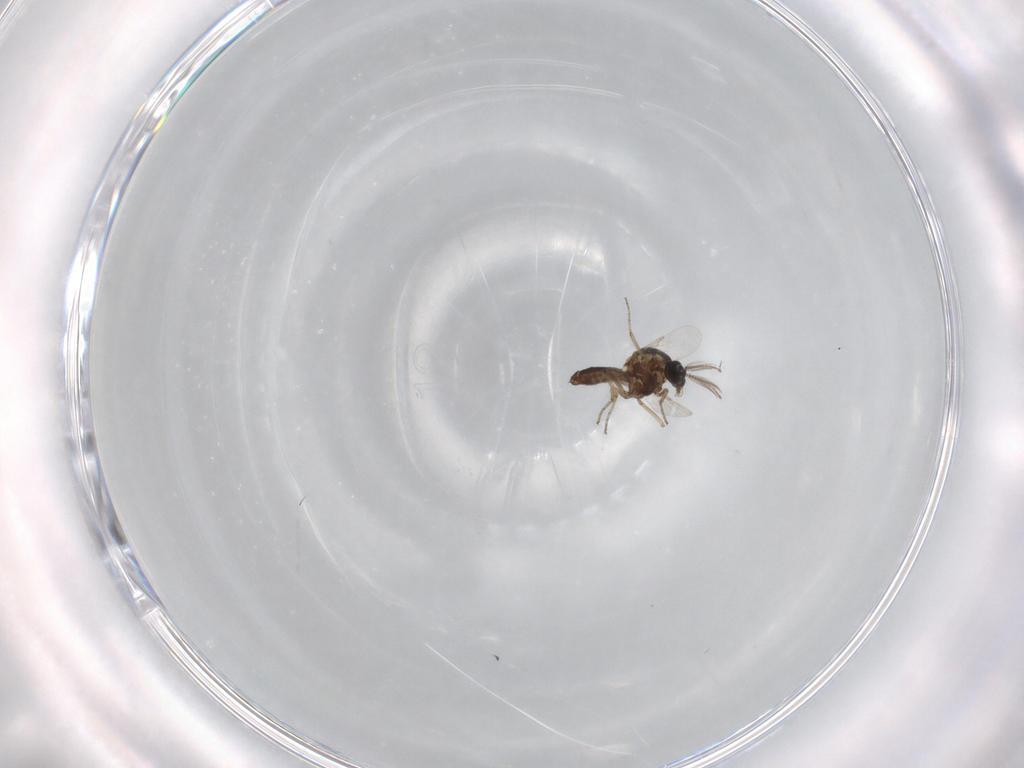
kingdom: Animalia
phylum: Arthropoda
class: Insecta
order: Diptera
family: Ceratopogonidae
